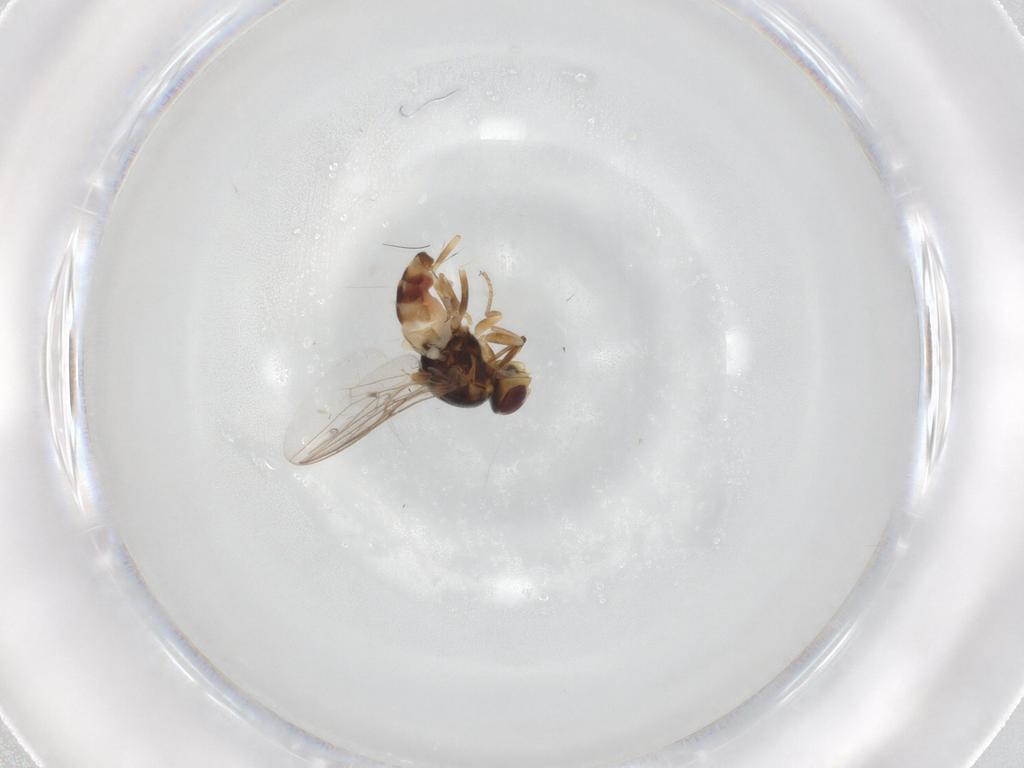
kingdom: Animalia
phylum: Arthropoda
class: Insecta
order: Diptera
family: Chloropidae
